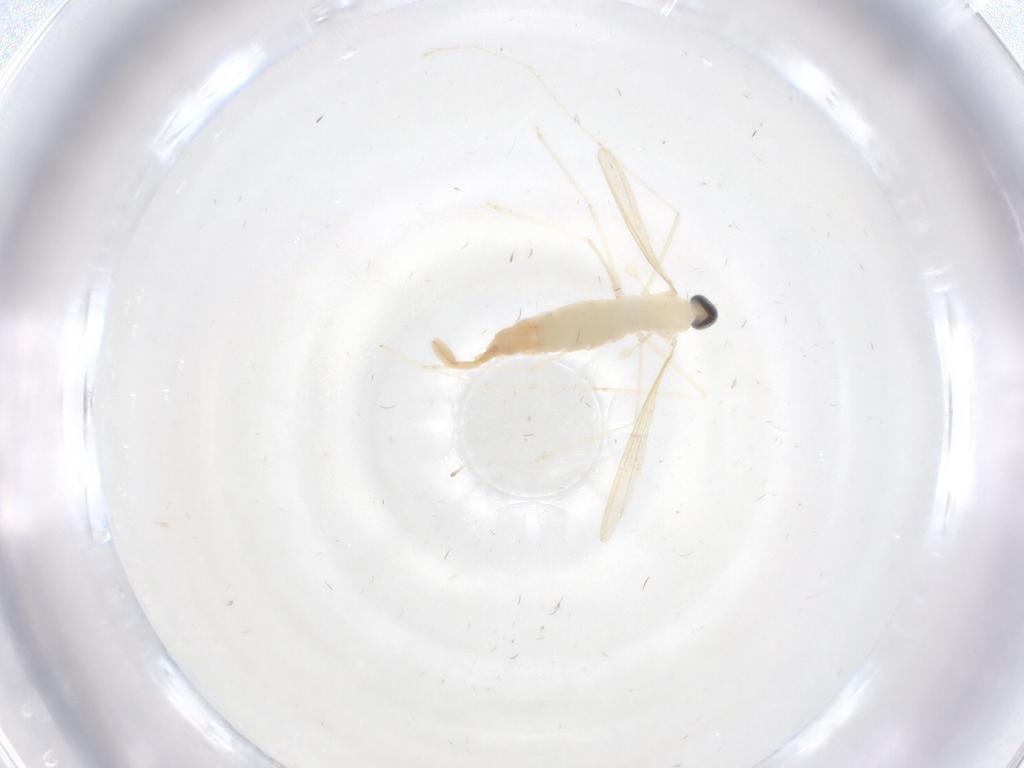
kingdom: Animalia
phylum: Arthropoda
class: Insecta
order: Diptera
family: Cecidomyiidae
